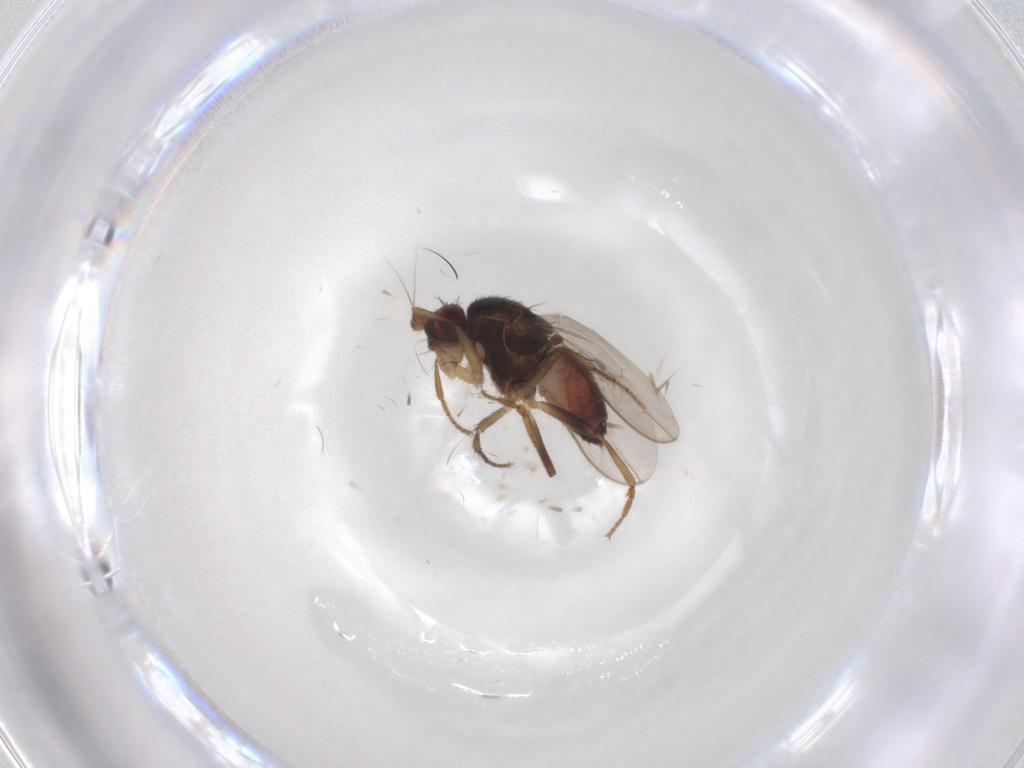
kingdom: Animalia
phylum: Arthropoda
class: Insecta
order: Diptera
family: Sphaeroceridae
